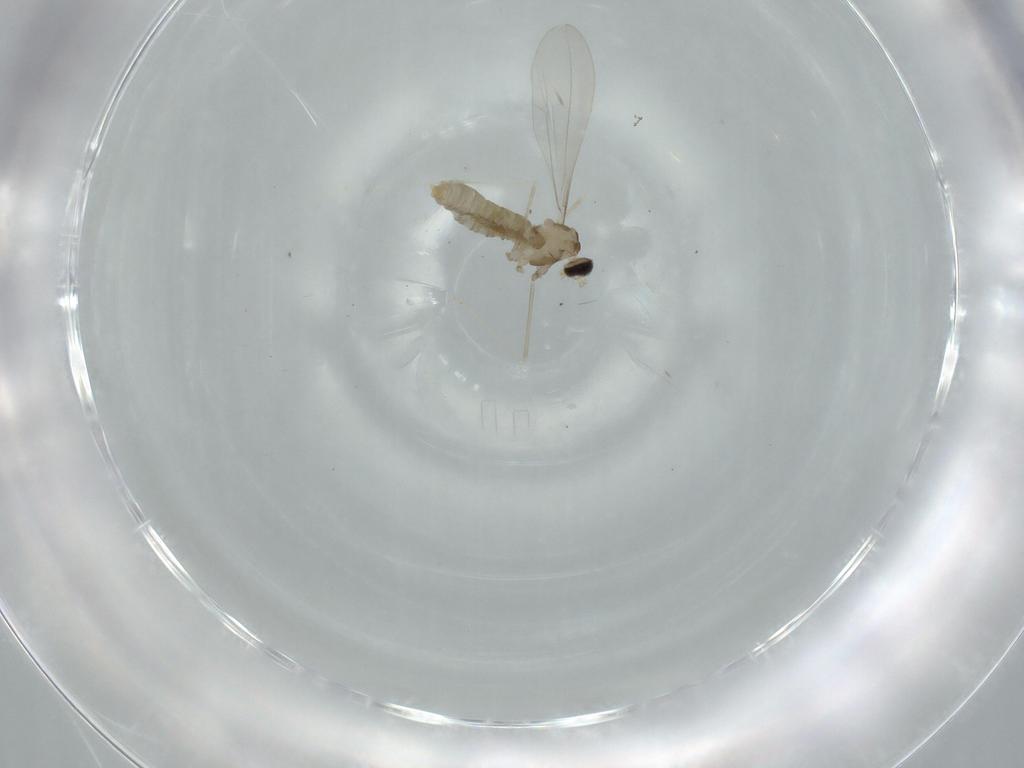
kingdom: Animalia
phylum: Arthropoda
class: Insecta
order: Diptera
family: Cecidomyiidae
